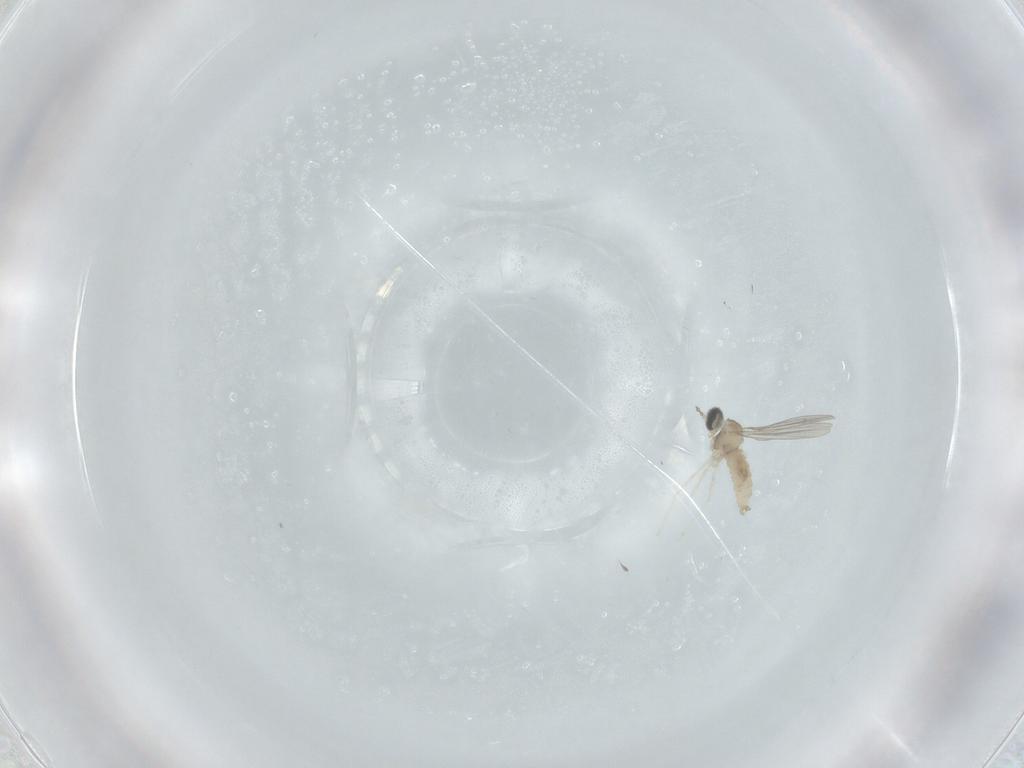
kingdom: Animalia
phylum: Arthropoda
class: Insecta
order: Diptera
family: Cecidomyiidae
